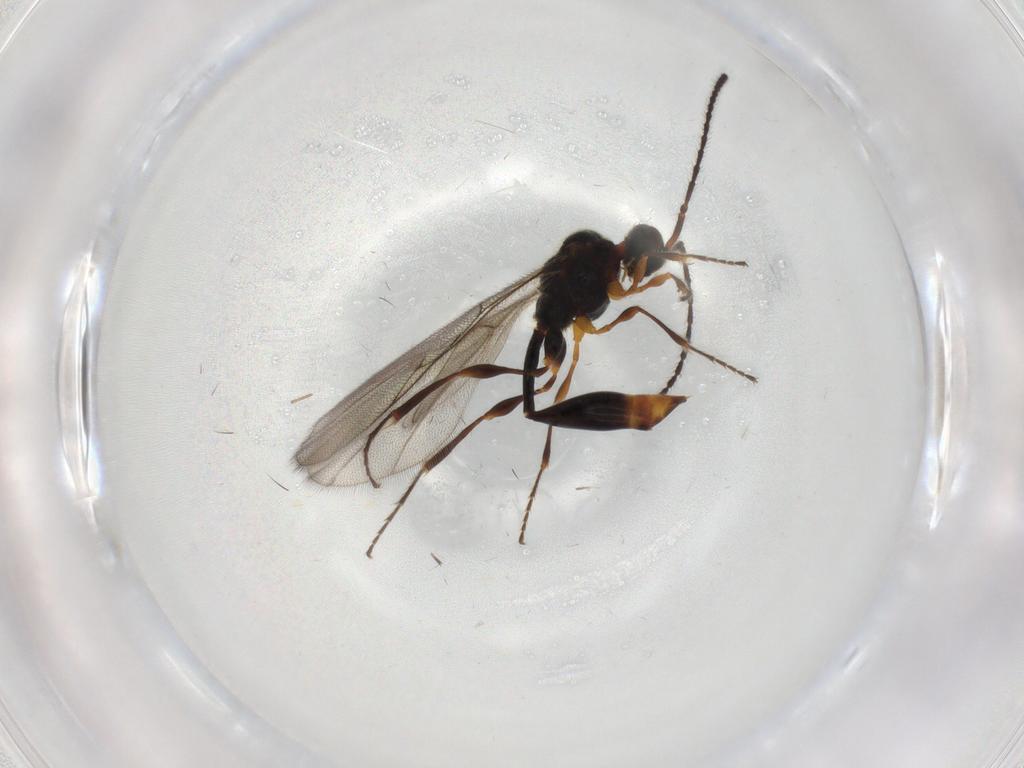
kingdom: Animalia
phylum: Arthropoda
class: Insecta
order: Hymenoptera
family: Diapriidae
